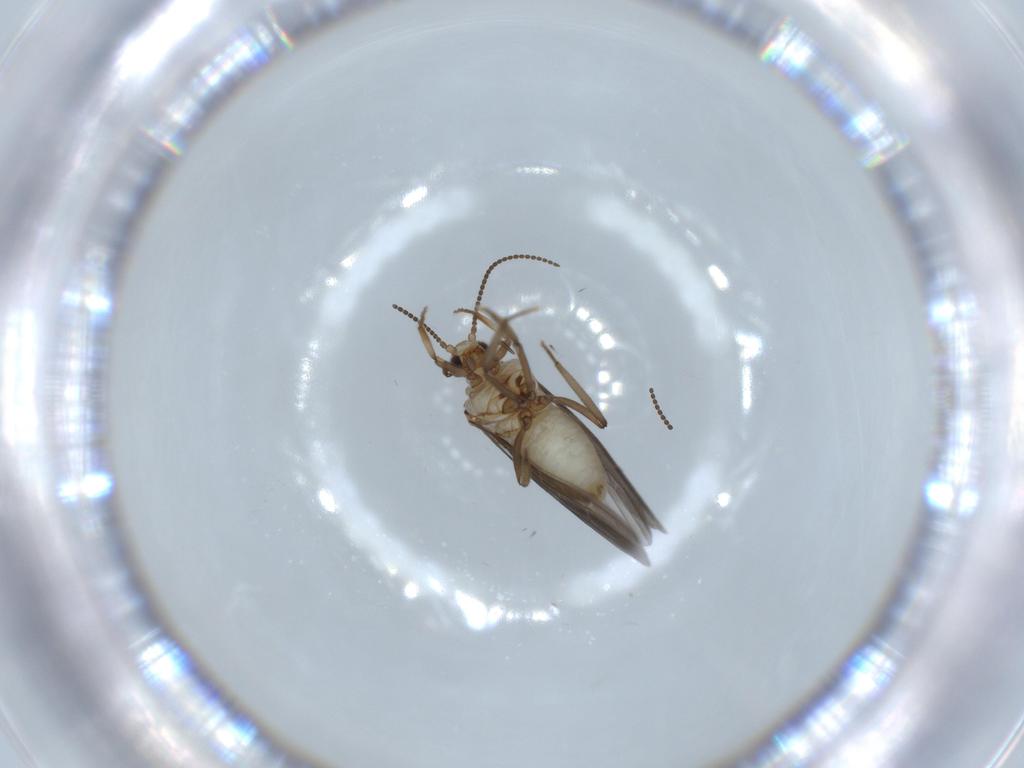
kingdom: Animalia
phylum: Arthropoda
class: Insecta
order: Neuroptera
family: Coniopterygidae
